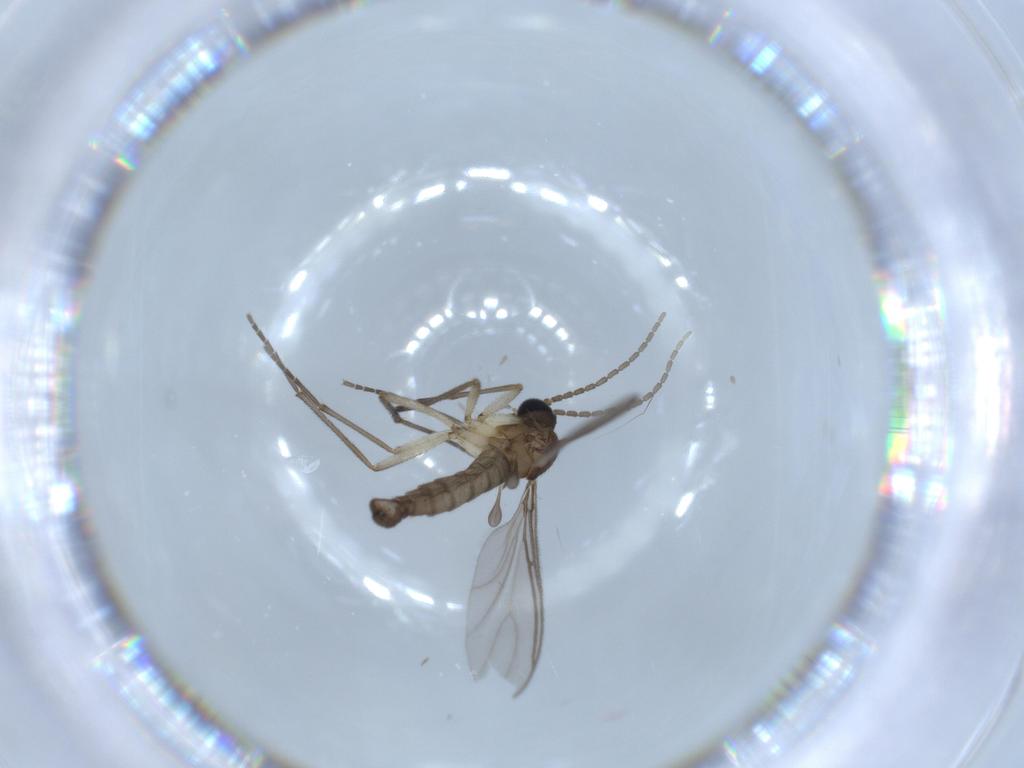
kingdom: Animalia
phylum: Arthropoda
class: Insecta
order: Diptera
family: Sciaridae
